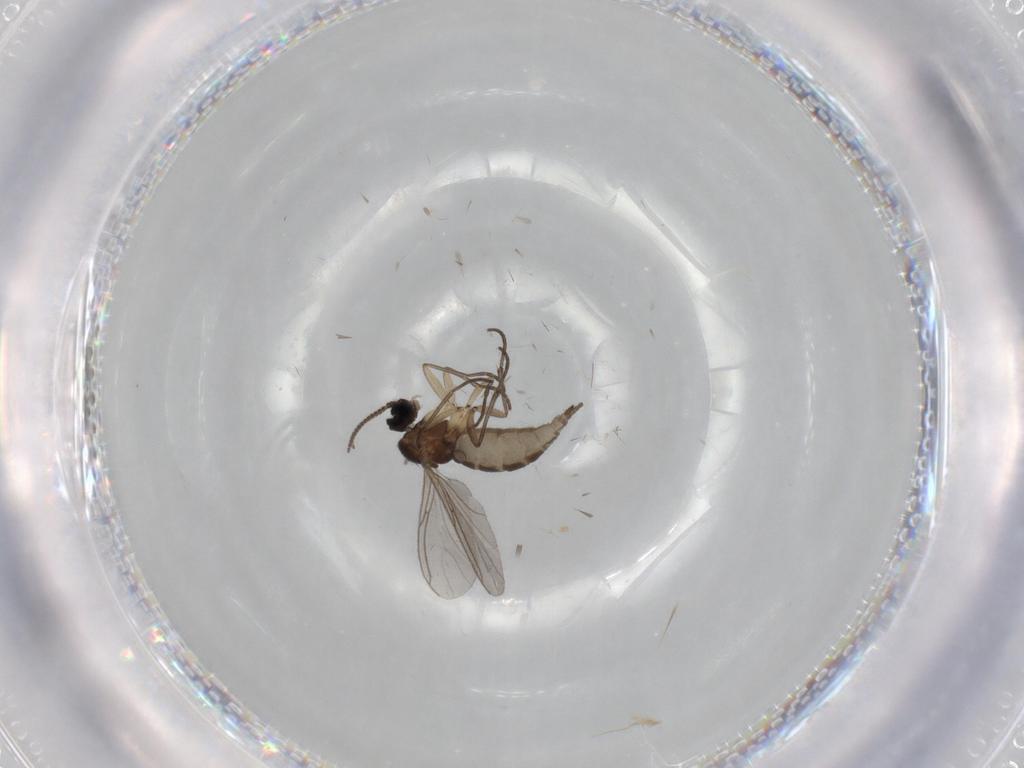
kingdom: Animalia
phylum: Arthropoda
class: Insecta
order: Diptera
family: Sciaridae
